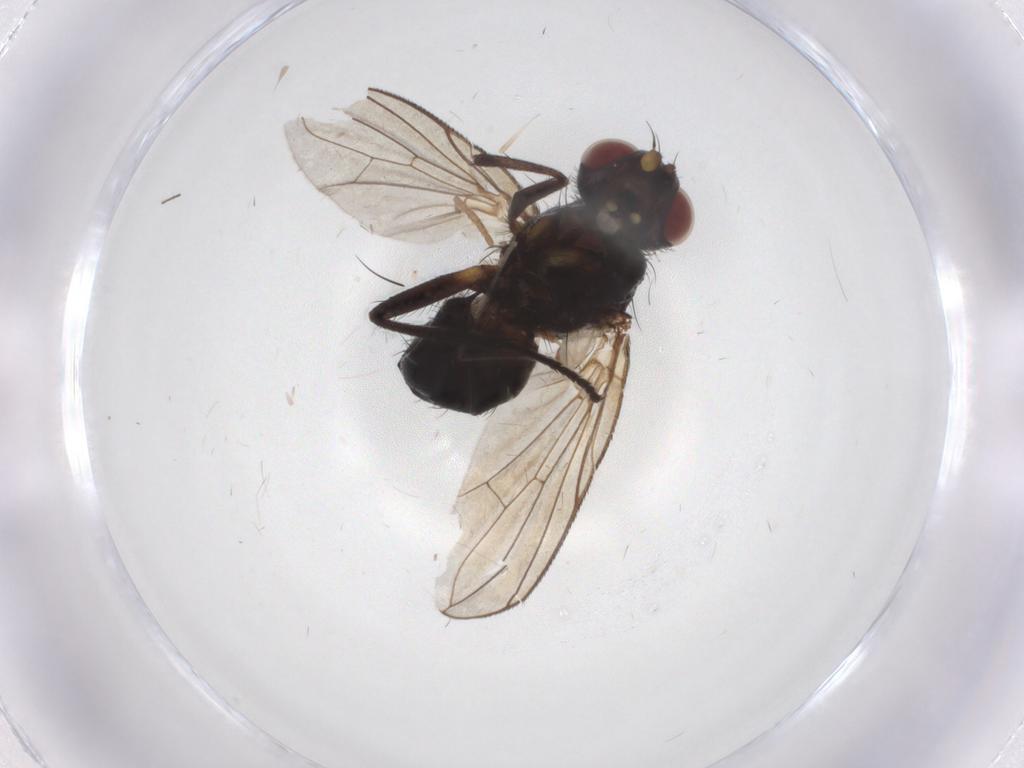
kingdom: Animalia
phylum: Arthropoda
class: Insecta
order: Diptera
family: Tachinidae
